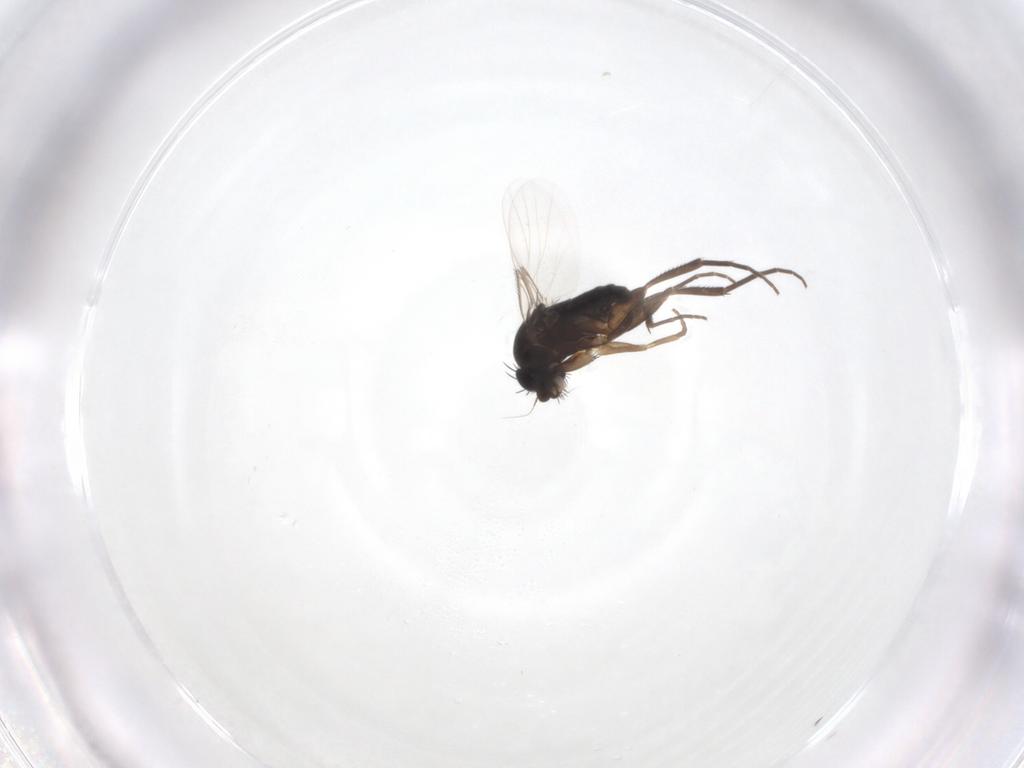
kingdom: Animalia
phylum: Arthropoda
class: Insecta
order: Diptera
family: Phoridae
